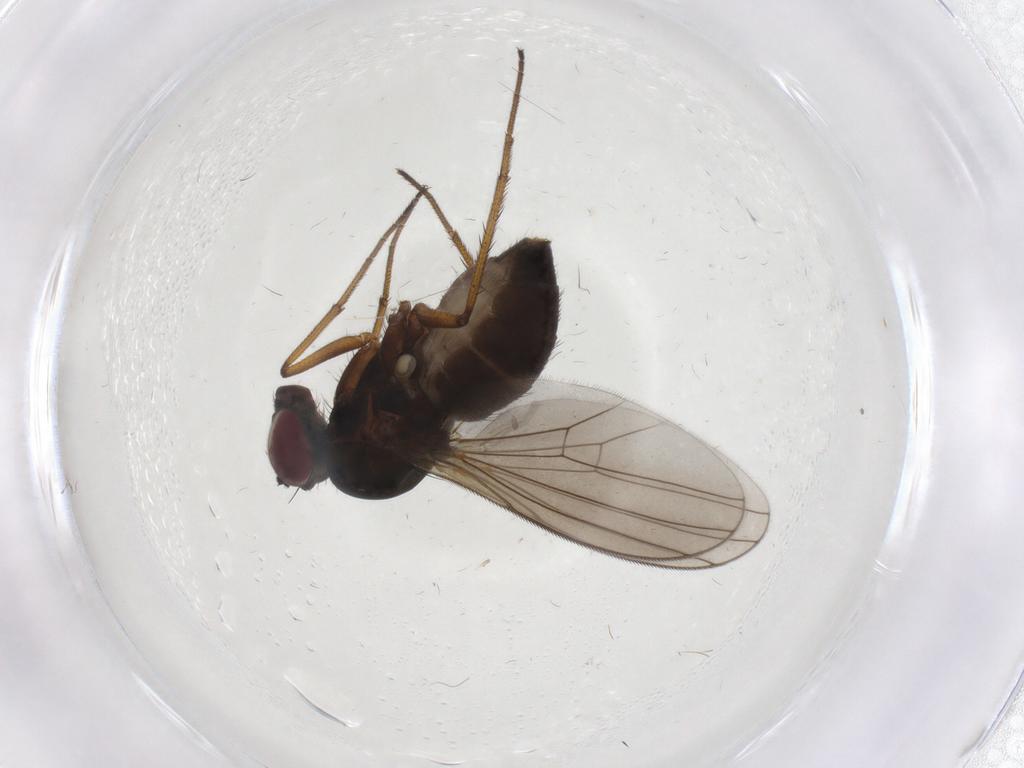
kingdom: Animalia
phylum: Arthropoda
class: Insecta
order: Diptera
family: Dolichopodidae
